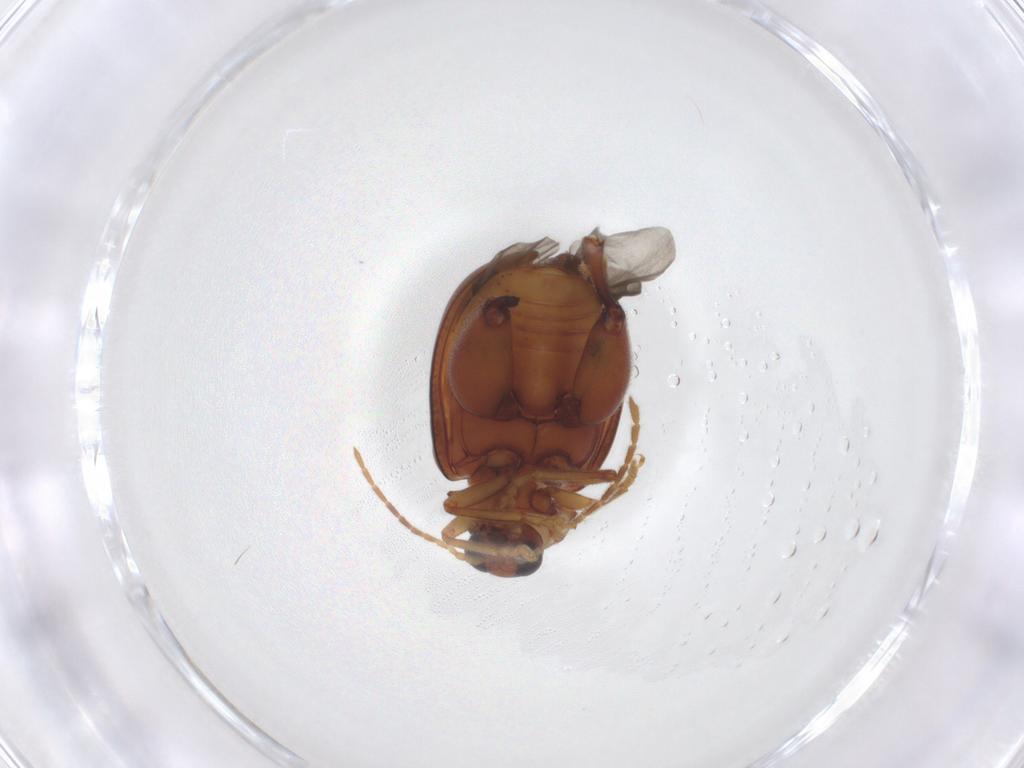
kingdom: Animalia
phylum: Arthropoda
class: Insecta
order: Coleoptera
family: Chrysomelidae
